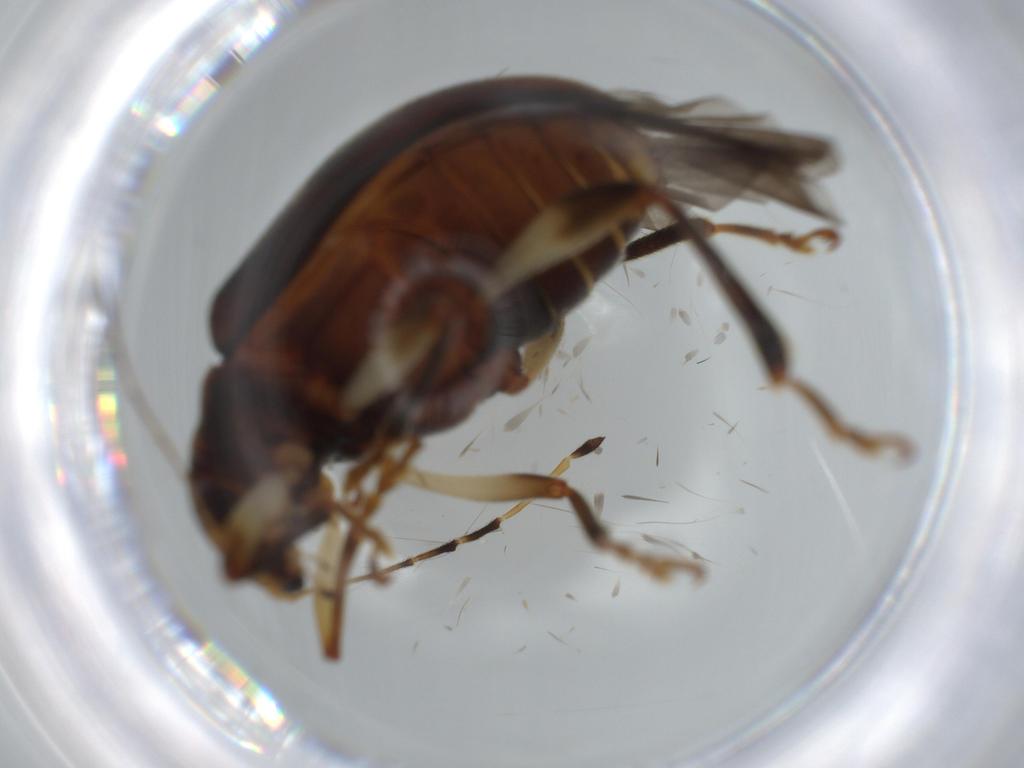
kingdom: Animalia
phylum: Arthropoda
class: Insecta
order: Coleoptera
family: Chrysomelidae
